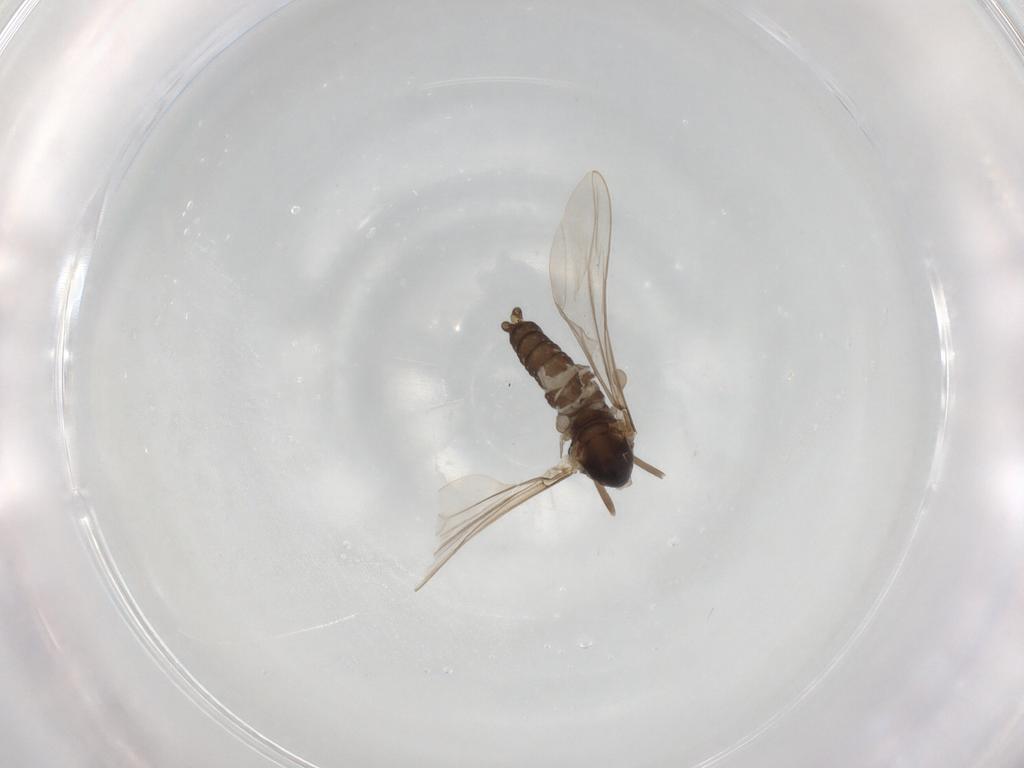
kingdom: Animalia
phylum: Arthropoda
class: Insecta
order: Diptera
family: Cecidomyiidae
